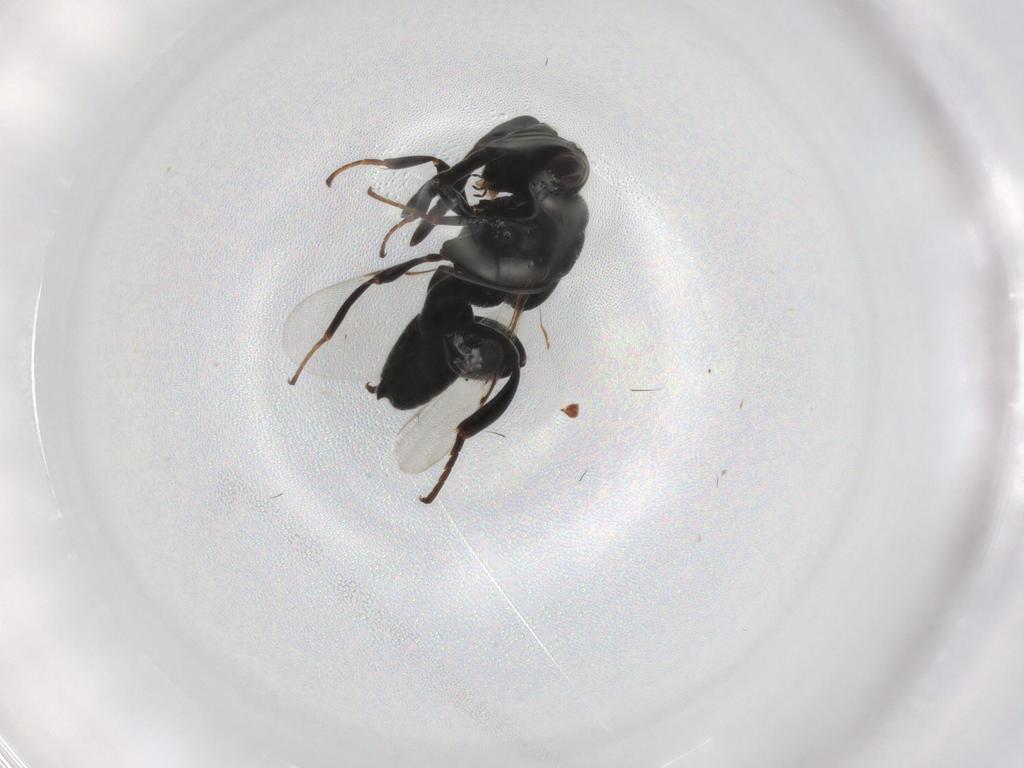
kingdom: Animalia
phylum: Arthropoda
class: Insecta
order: Hymenoptera
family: Chalcididae
